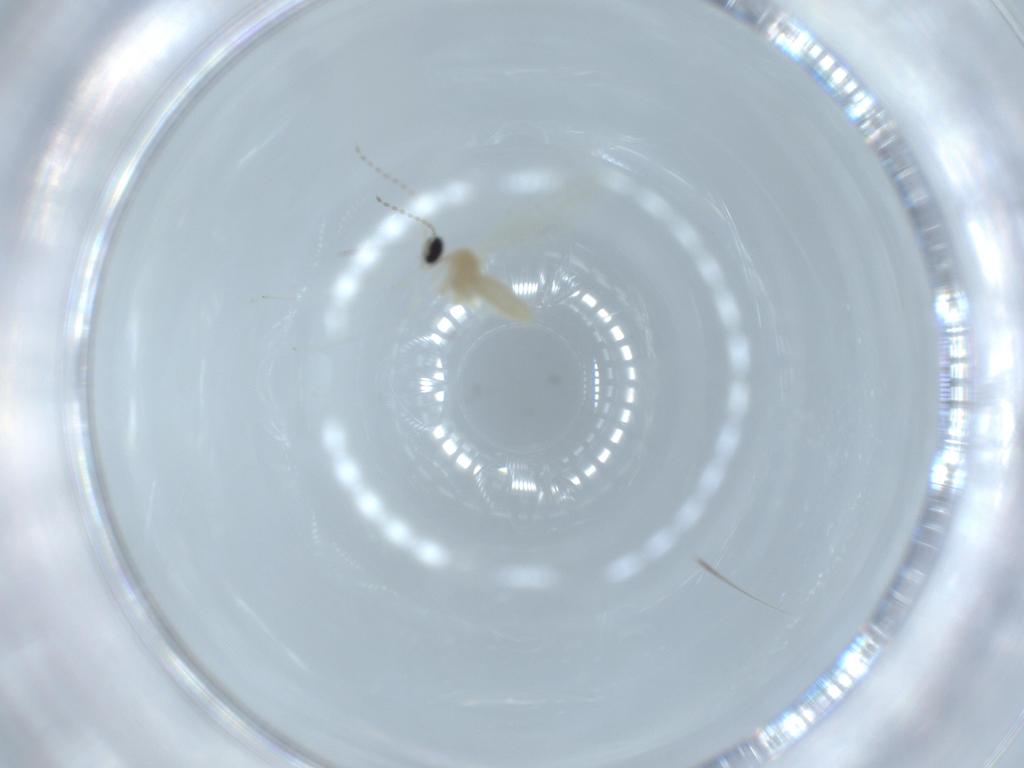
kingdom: Animalia
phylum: Arthropoda
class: Insecta
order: Diptera
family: Cecidomyiidae
